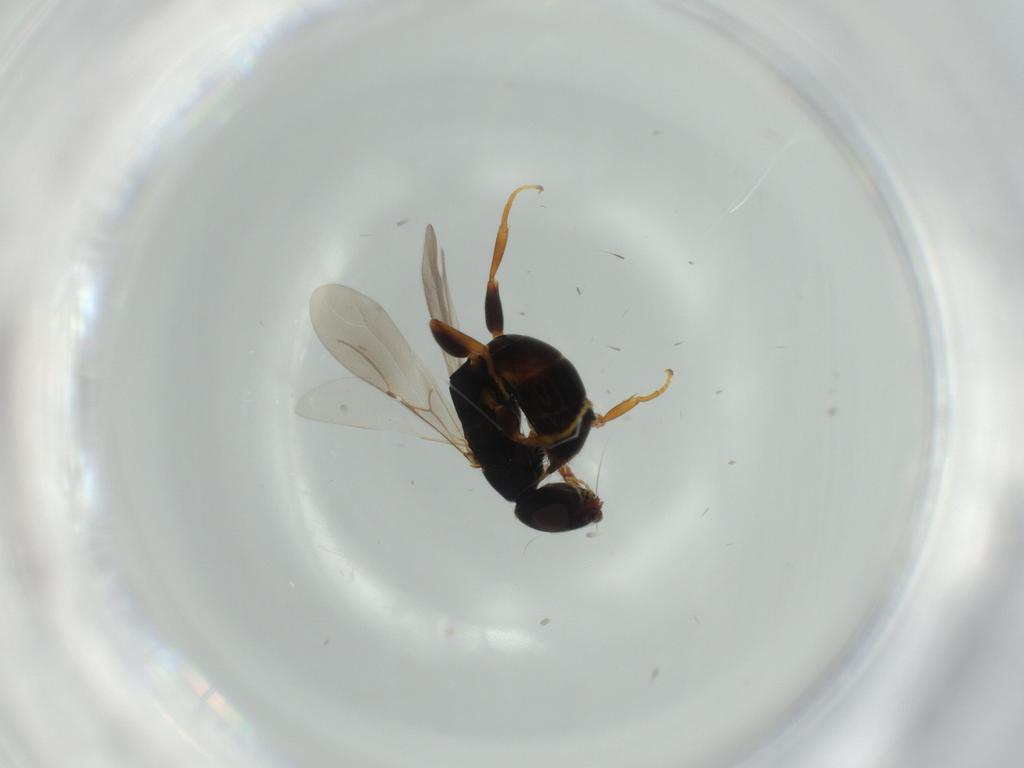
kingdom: Animalia
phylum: Arthropoda
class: Insecta
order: Hymenoptera
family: Bethylidae
